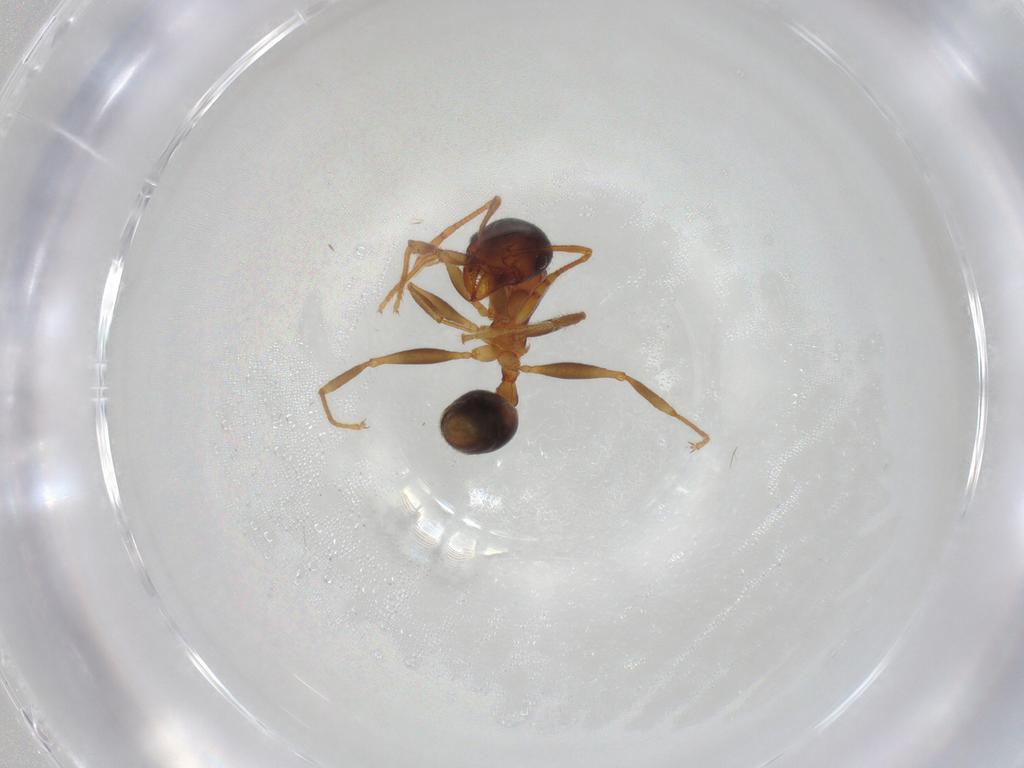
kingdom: Animalia
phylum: Arthropoda
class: Insecta
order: Hymenoptera
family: Formicidae
